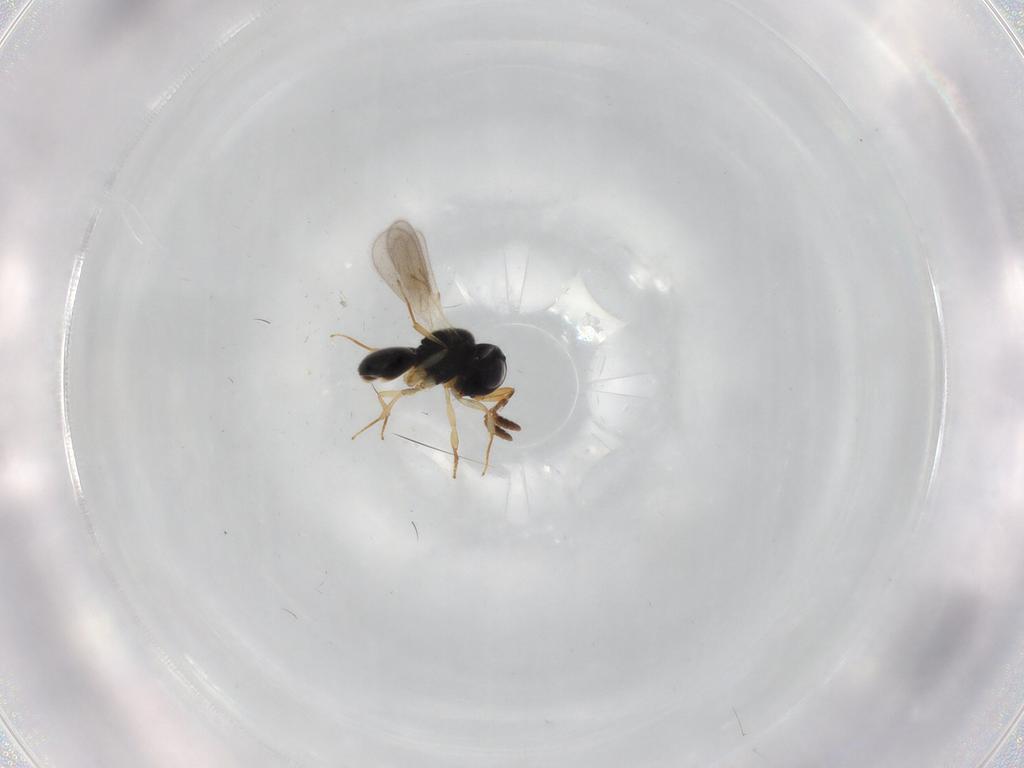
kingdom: Animalia
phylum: Arthropoda
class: Insecta
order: Hymenoptera
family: Scelionidae
